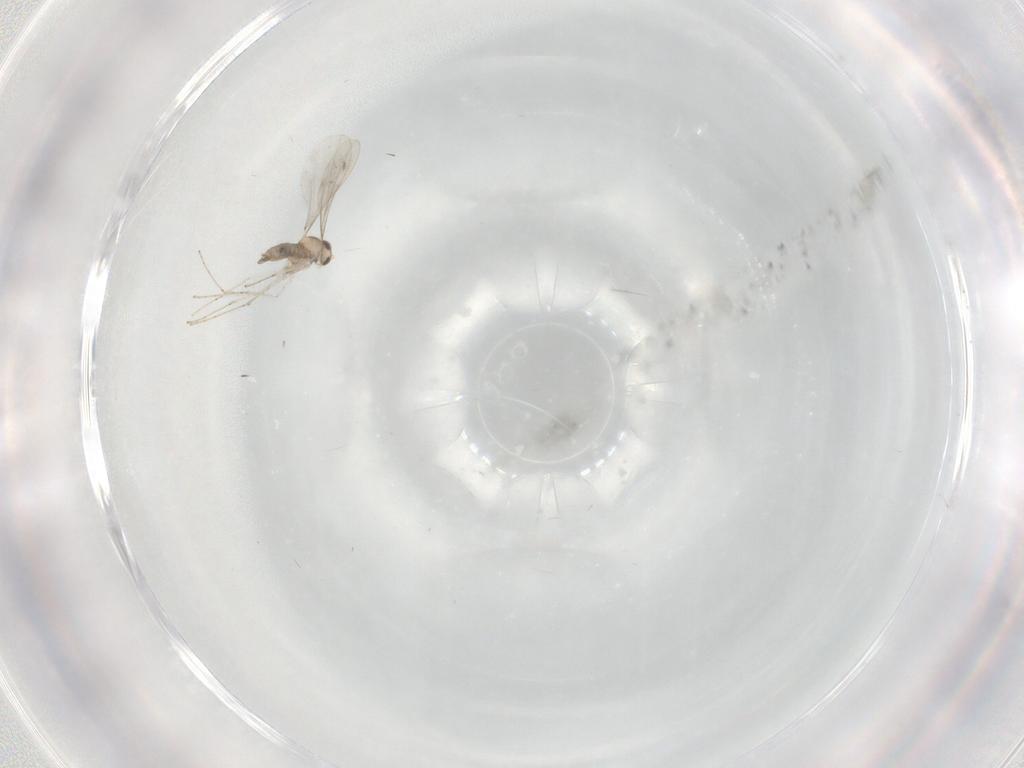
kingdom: Animalia
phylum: Arthropoda
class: Insecta
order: Diptera
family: Cecidomyiidae
